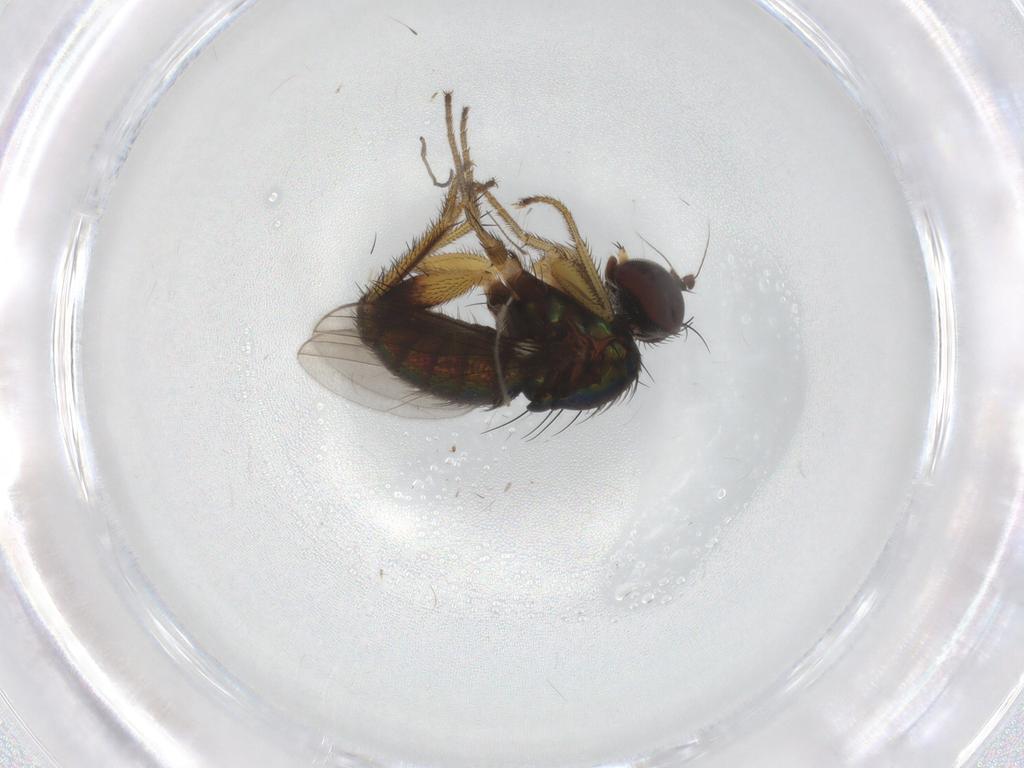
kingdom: Animalia
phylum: Arthropoda
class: Insecta
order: Diptera
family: Dolichopodidae
